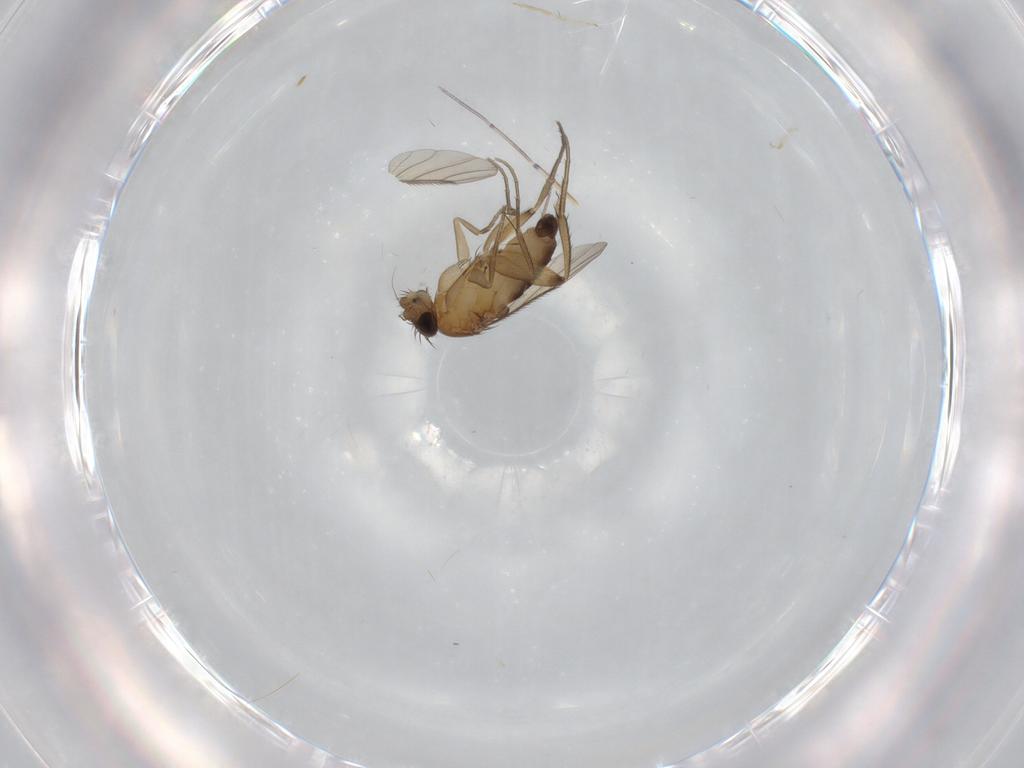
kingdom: Animalia
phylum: Arthropoda
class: Insecta
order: Diptera
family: Phoridae
